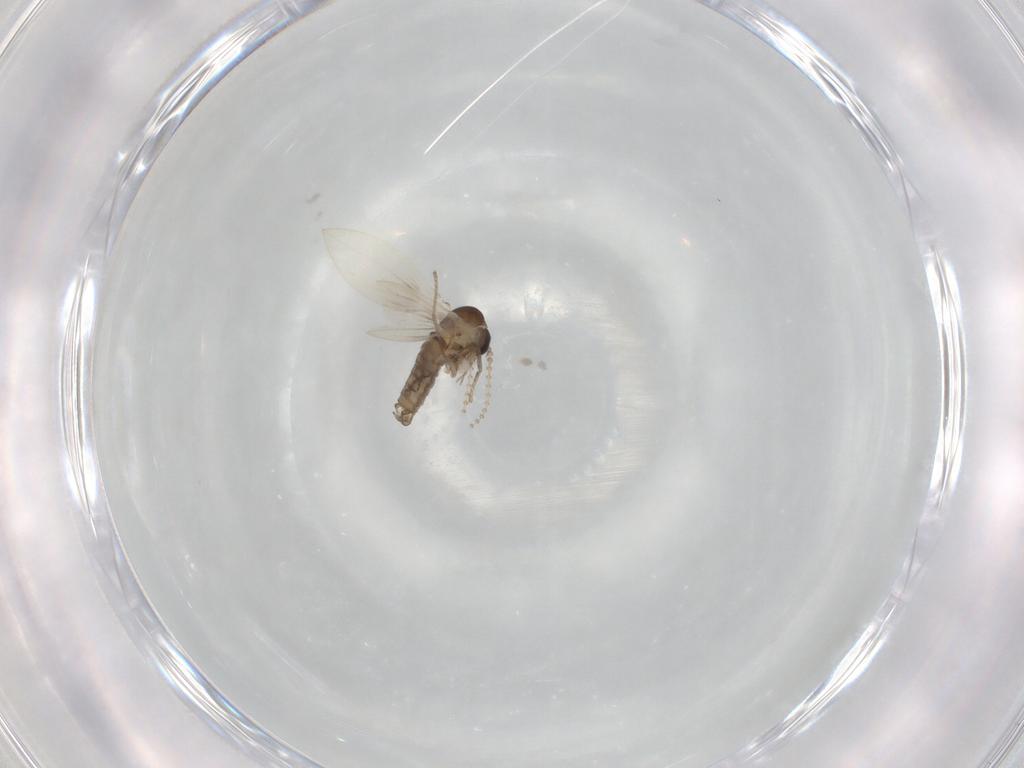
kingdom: Animalia
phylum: Arthropoda
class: Insecta
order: Diptera
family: Psychodidae
